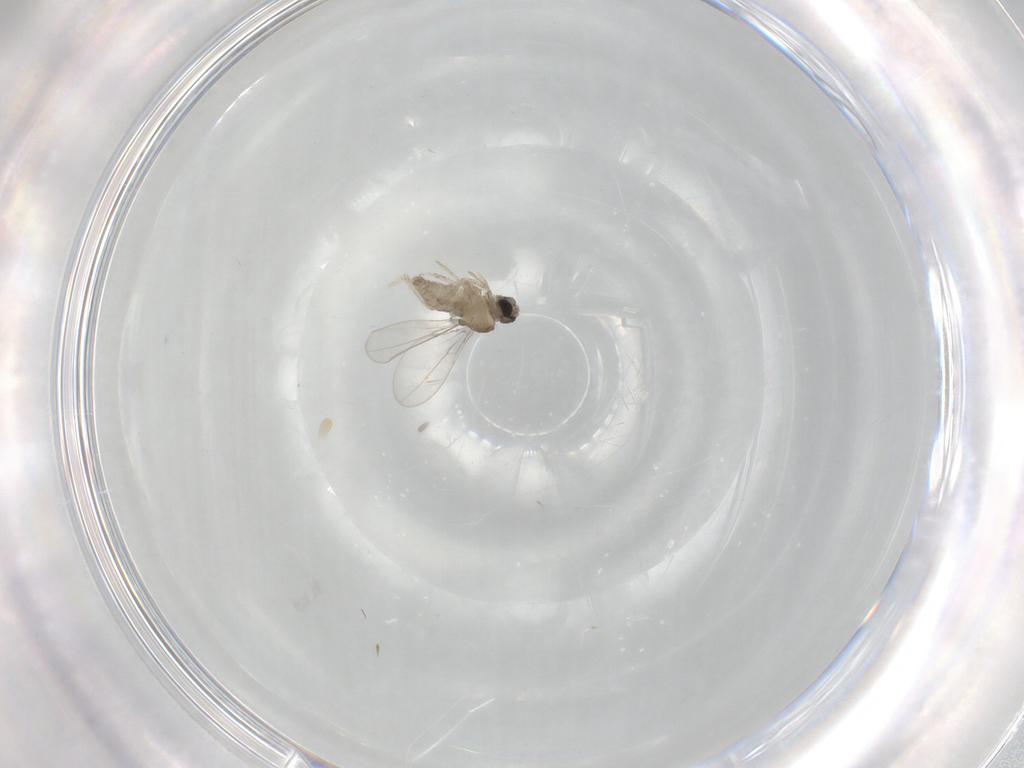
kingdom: Animalia
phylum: Arthropoda
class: Insecta
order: Diptera
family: Cecidomyiidae
